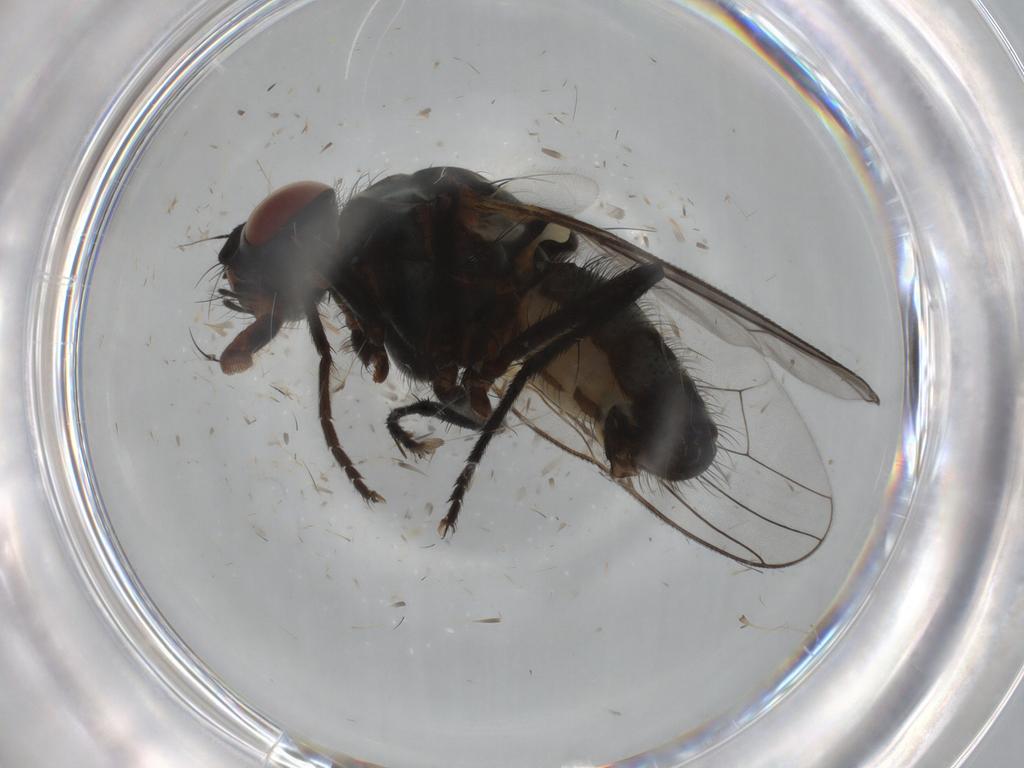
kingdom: Animalia
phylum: Arthropoda
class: Insecta
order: Diptera
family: Anthomyiidae
